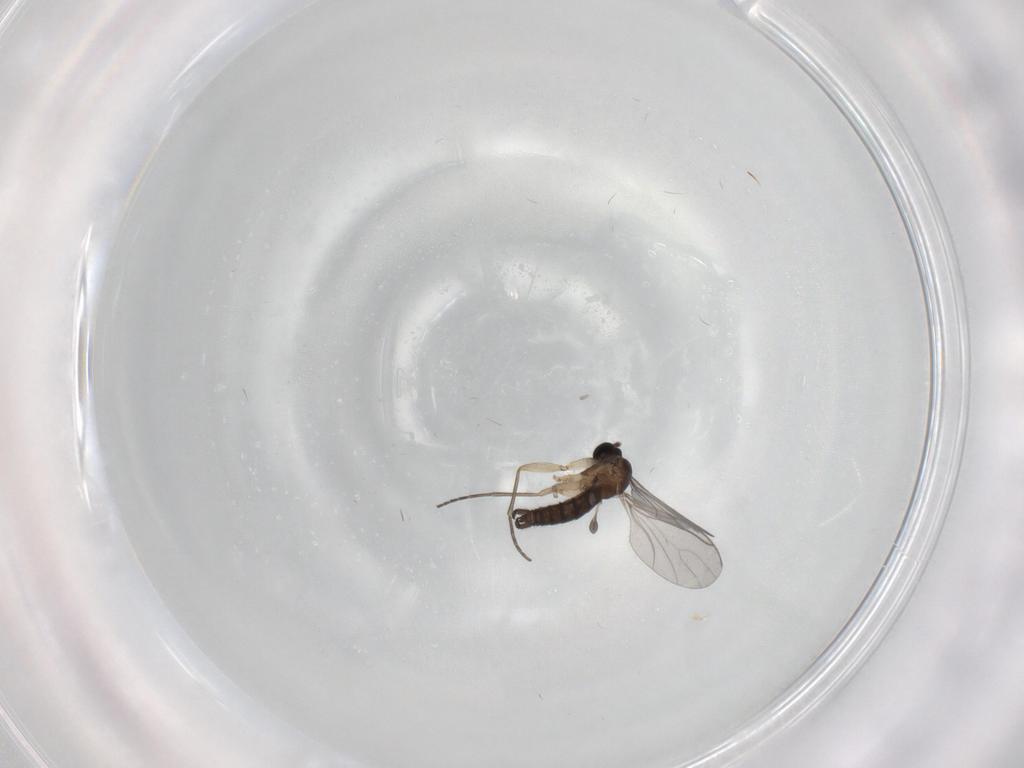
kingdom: Animalia
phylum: Arthropoda
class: Insecta
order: Diptera
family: Sciaridae
